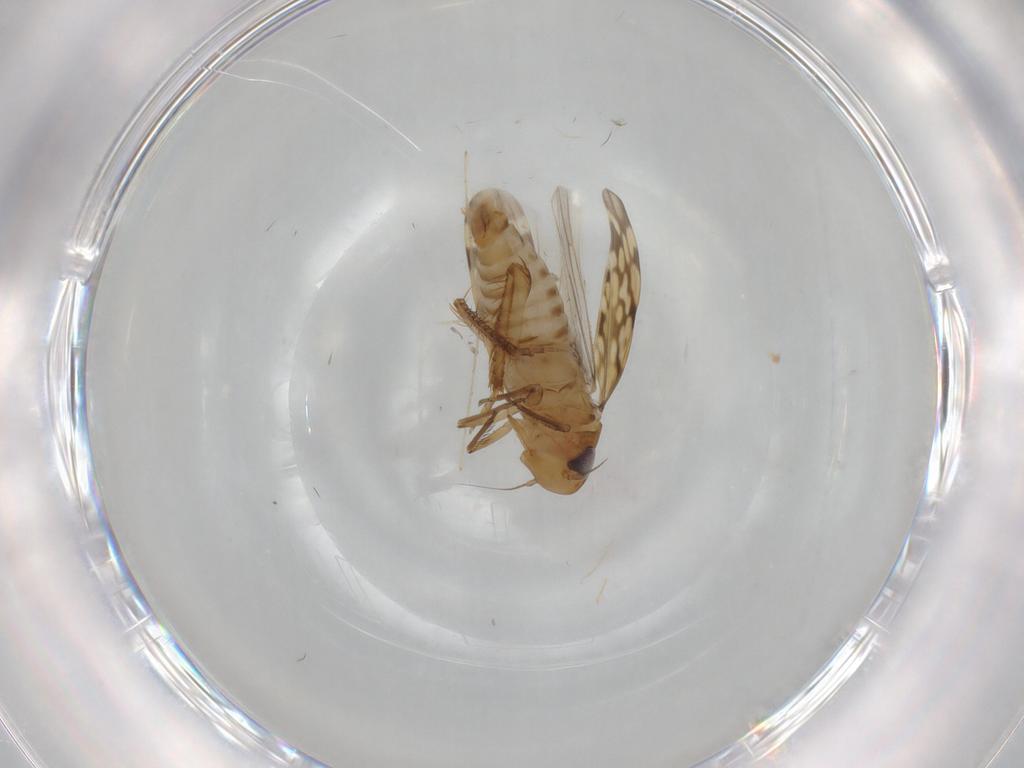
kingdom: Animalia
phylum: Arthropoda
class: Insecta
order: Hemiptera
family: Cicadellidae
